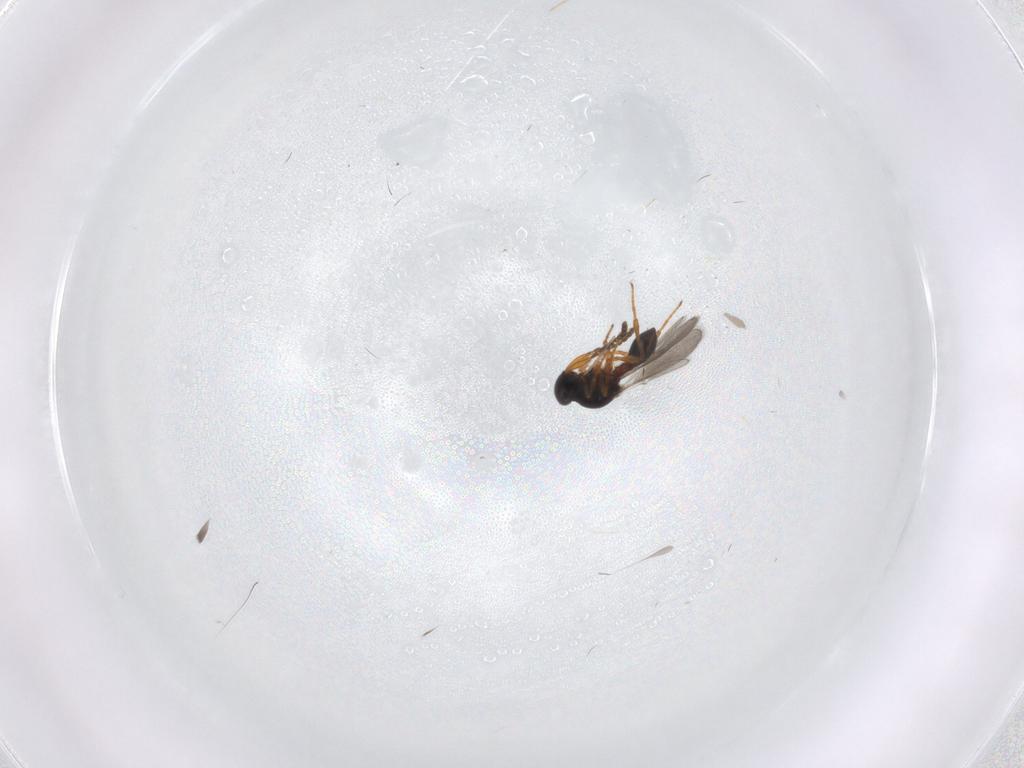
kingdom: Animalia
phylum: Arthropoda
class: Insecta
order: Hymenoptera
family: Platygastridae
